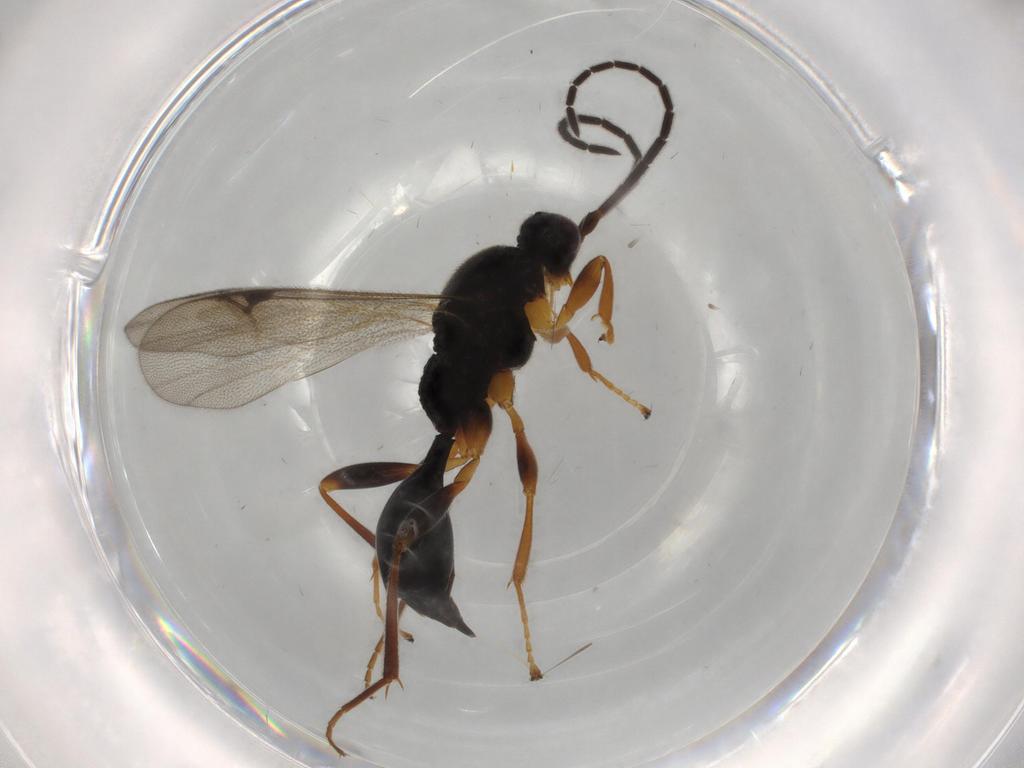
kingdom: Animalia
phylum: Arthropoda
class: Insecta
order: Hymenoptera
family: Proctotrupidae
